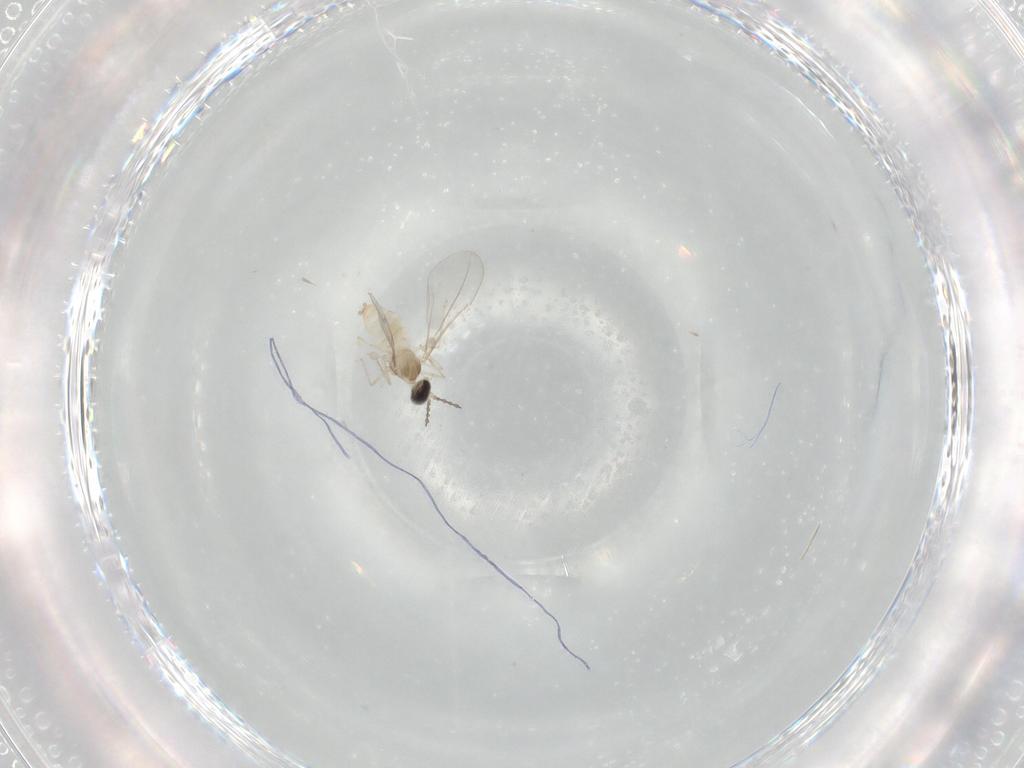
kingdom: Animalia
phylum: Arthropoda
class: Insecta
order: Diptera
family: Cecidomyiidae
